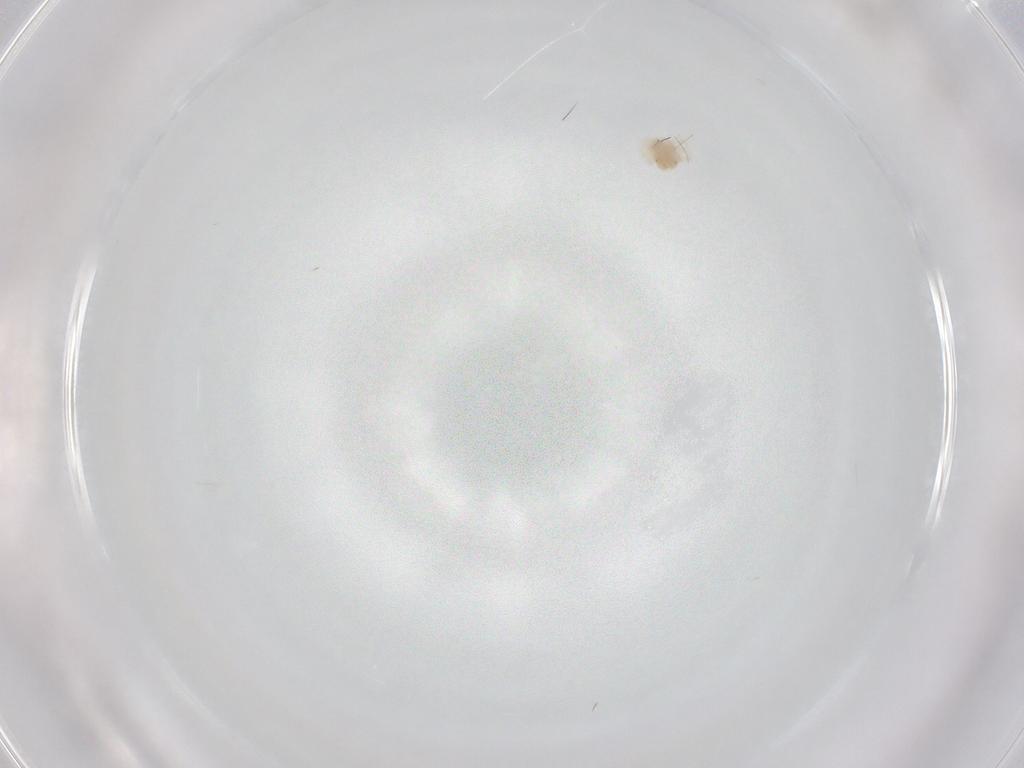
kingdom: Animalia
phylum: Arthropoda
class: Arachnida
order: Trombidiformes
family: Anystidae
